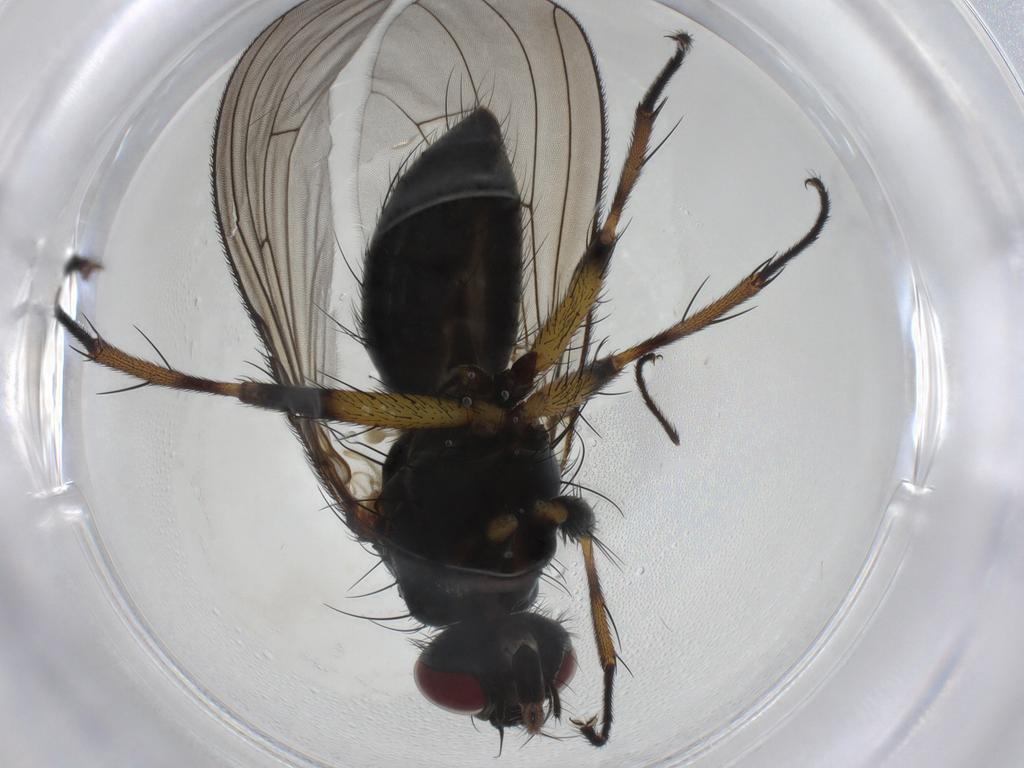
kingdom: Animalia
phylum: Arthropoda
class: Insecta
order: Diptera
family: Muscidae
